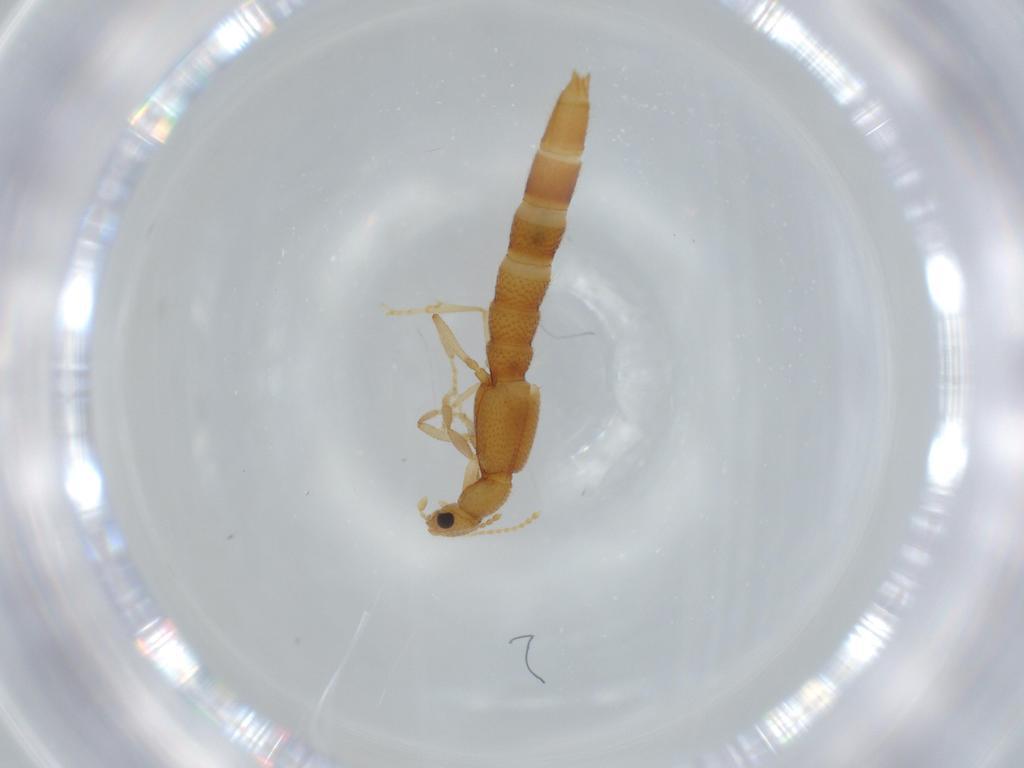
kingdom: Animalia
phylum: Arthropoda
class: Insecta
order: Coleoptera
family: Staphylinidae
